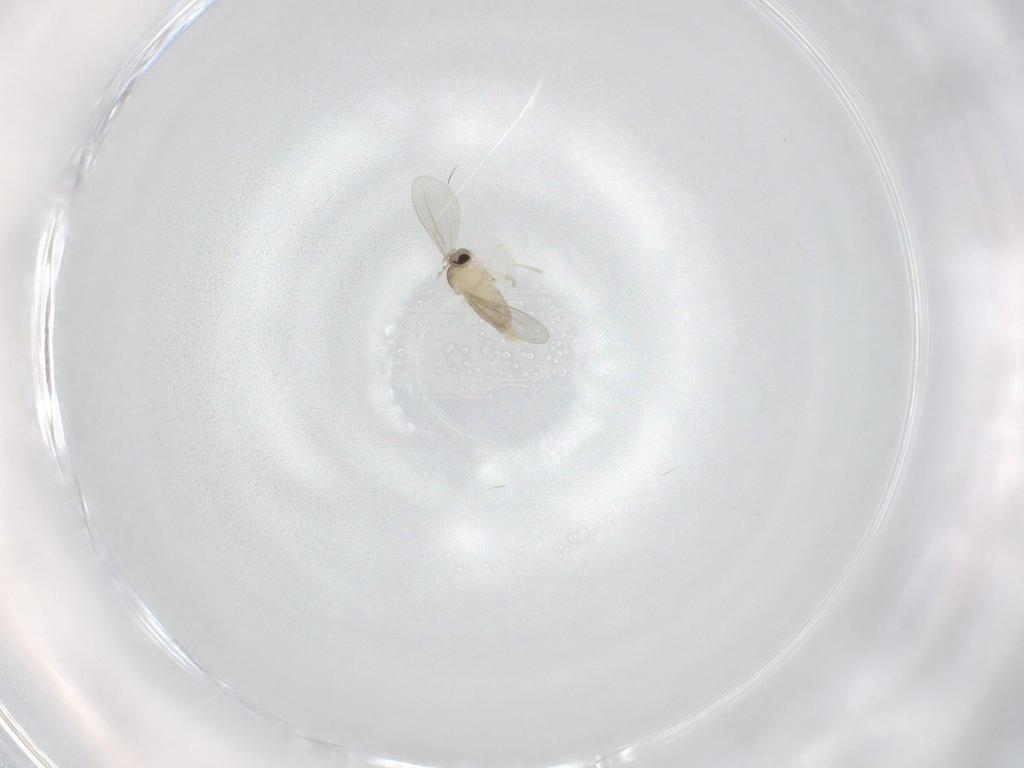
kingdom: Animalia
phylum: Arthropoda
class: Insecta
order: Diptera
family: Cecidomyiidae
